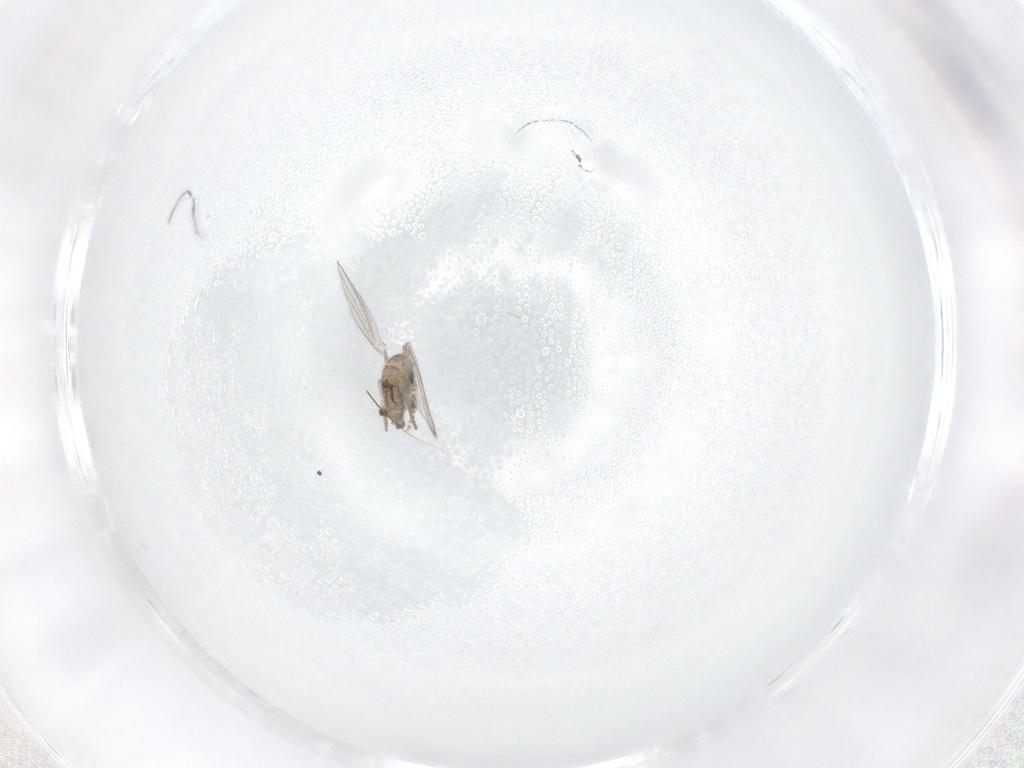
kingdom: Animalia
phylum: Arthropoda
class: Insecta
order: Diptera
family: Psychodidae
